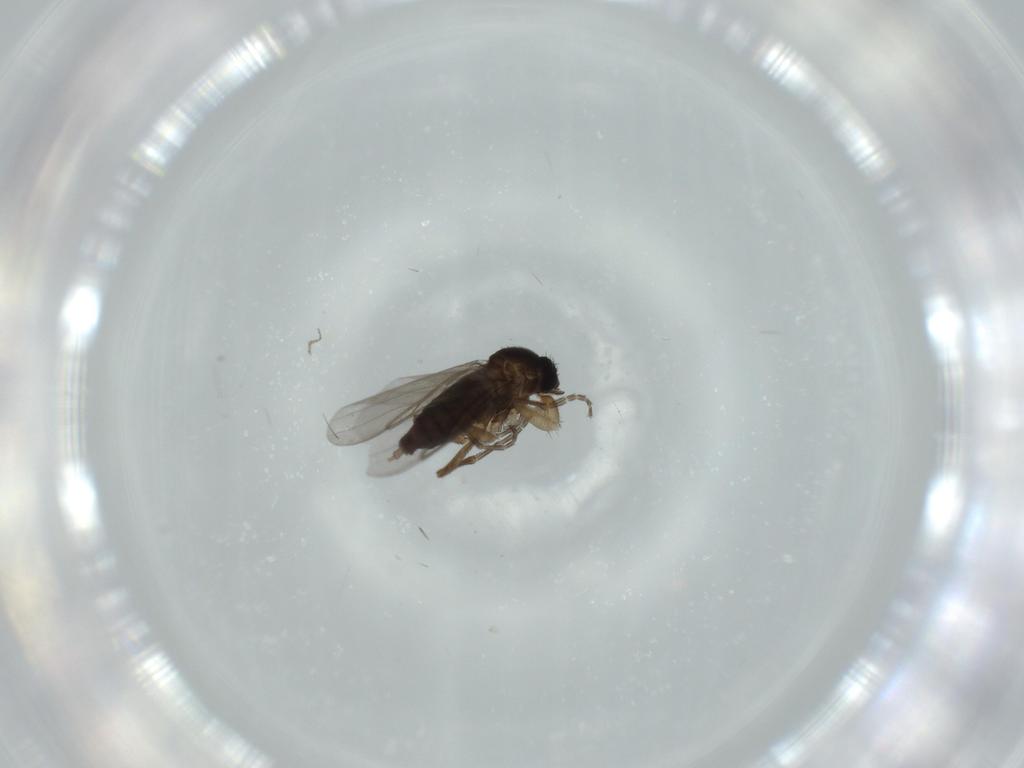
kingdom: Animalia
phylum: Arthropoda
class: Insecta
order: Diptera
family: Phoridae
